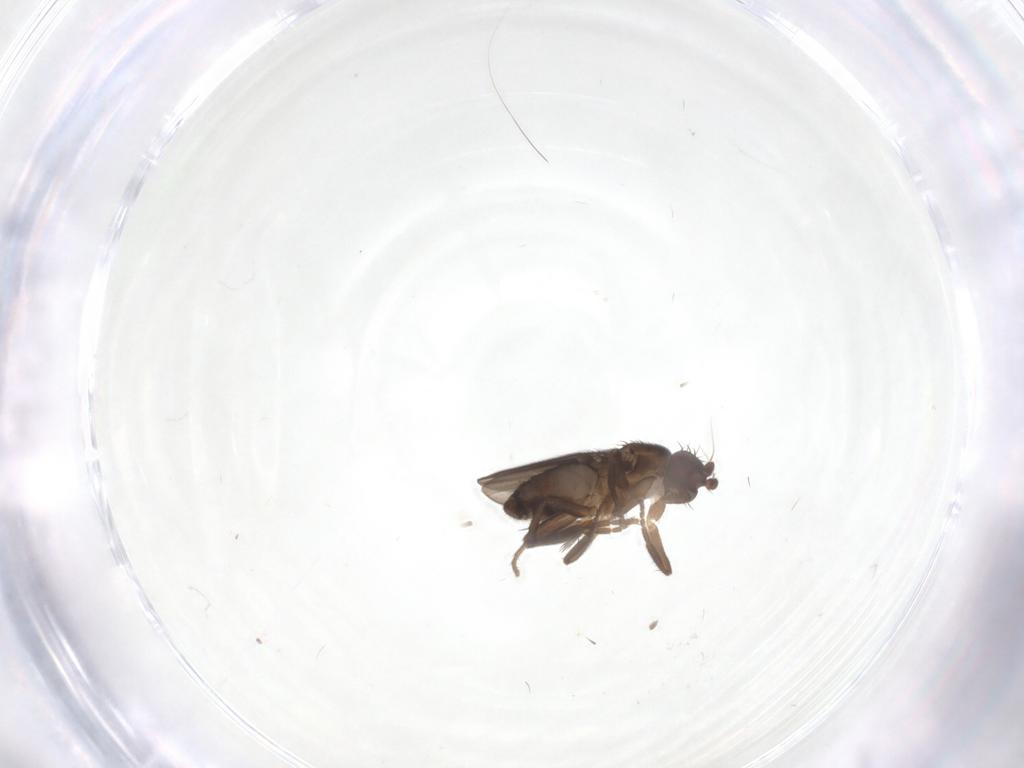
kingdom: Animalia
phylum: Arthropoda
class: Insecta
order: Diptera
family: Sphaeroceridae
